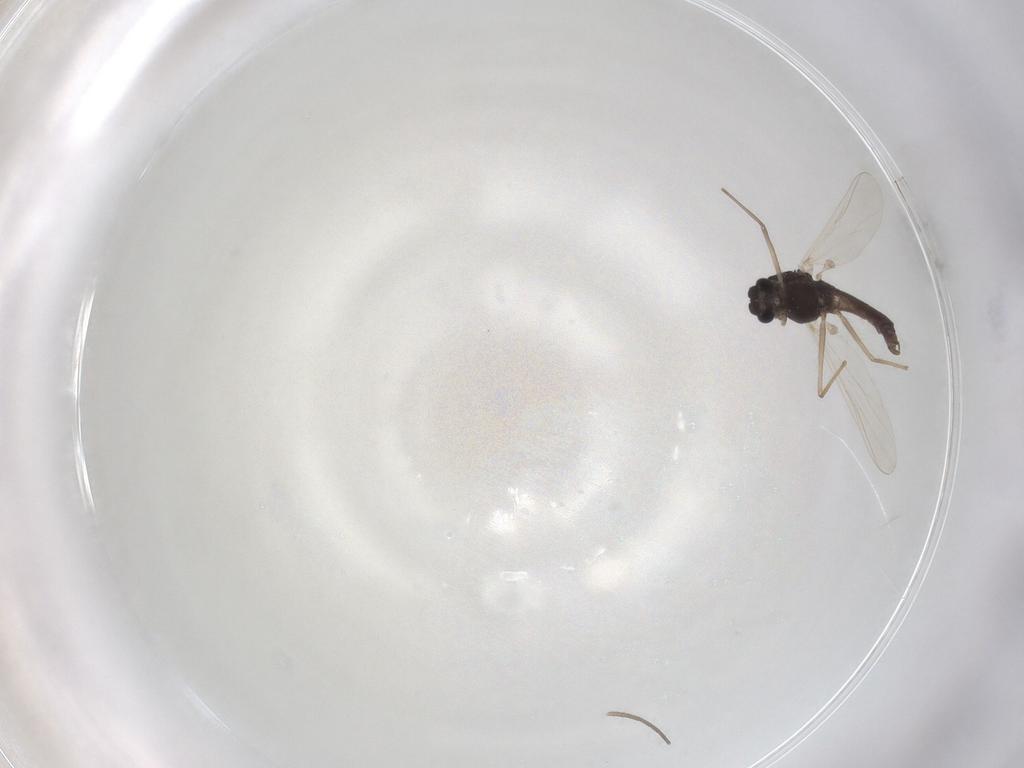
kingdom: Animalia
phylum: Arthropoda
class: Insecta
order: Diptera
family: Chironomidae
